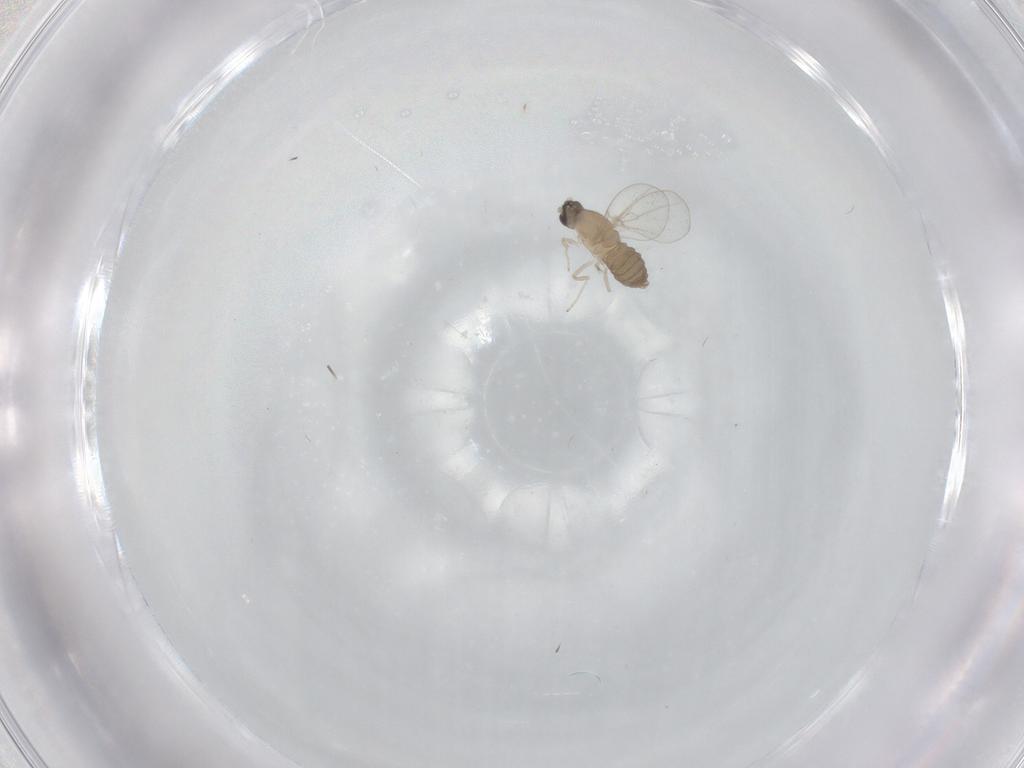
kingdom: Animalia
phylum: Arthropoda
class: Insecta
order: Diptera
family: Cecidomyiidae
